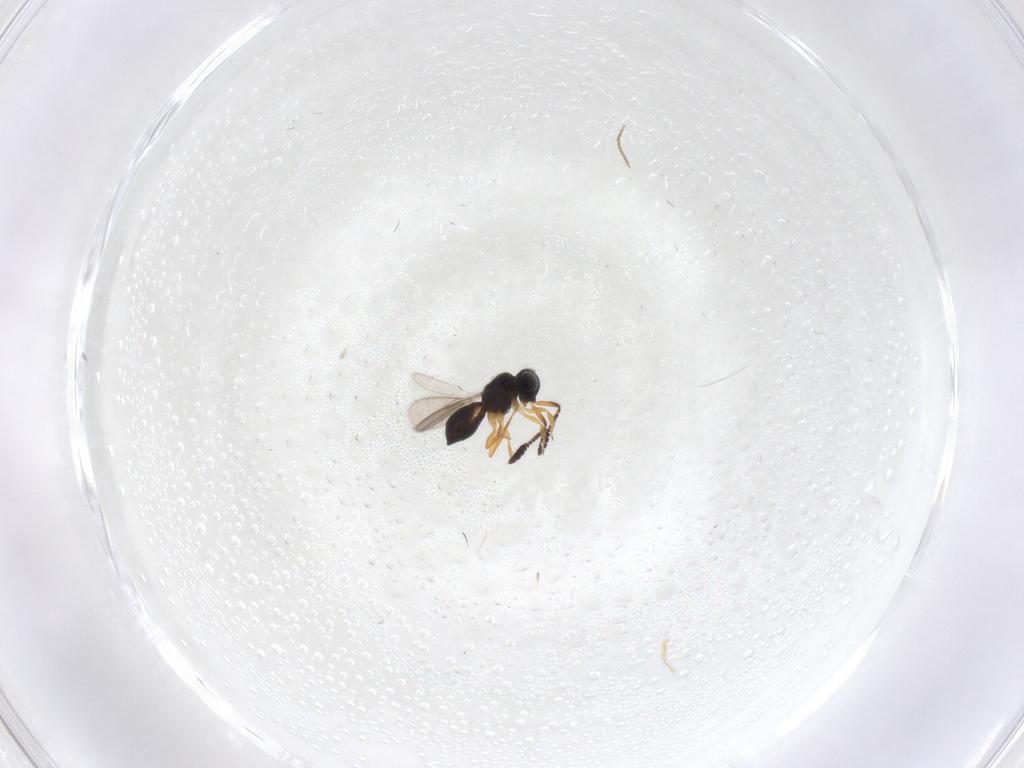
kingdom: Animalia
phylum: Arthropoda
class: Insecta
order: Hymenoptera
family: Scelionidae
